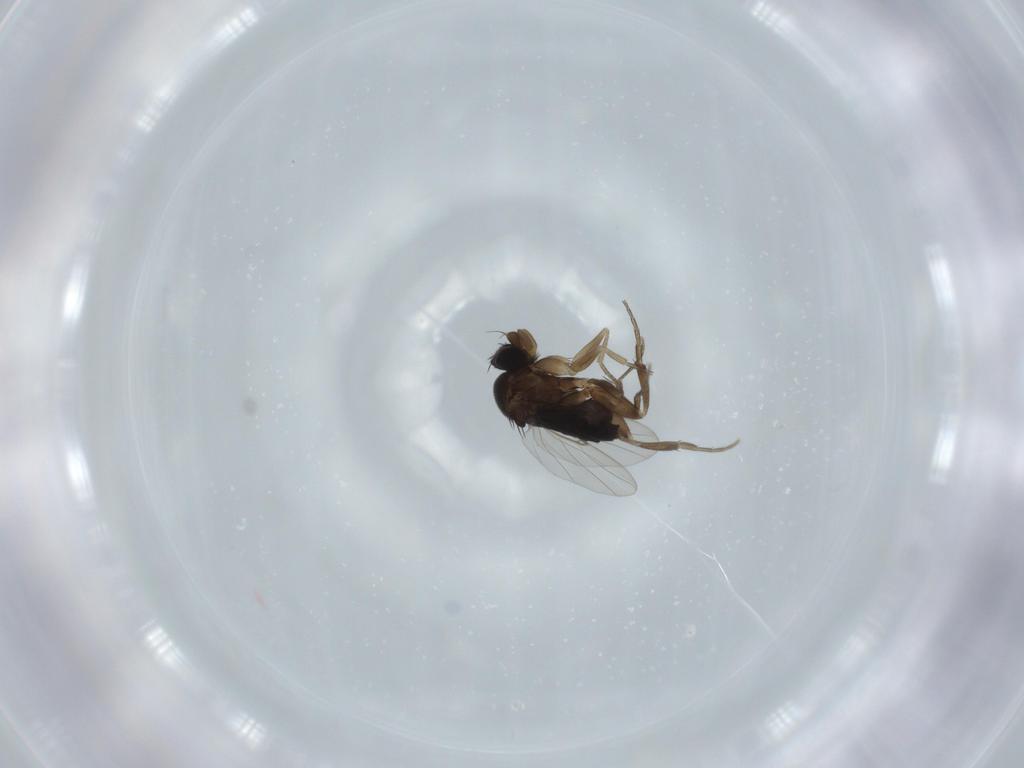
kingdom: Animalia
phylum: Arthropoda
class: Insecta
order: Diptera
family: Phoridae
